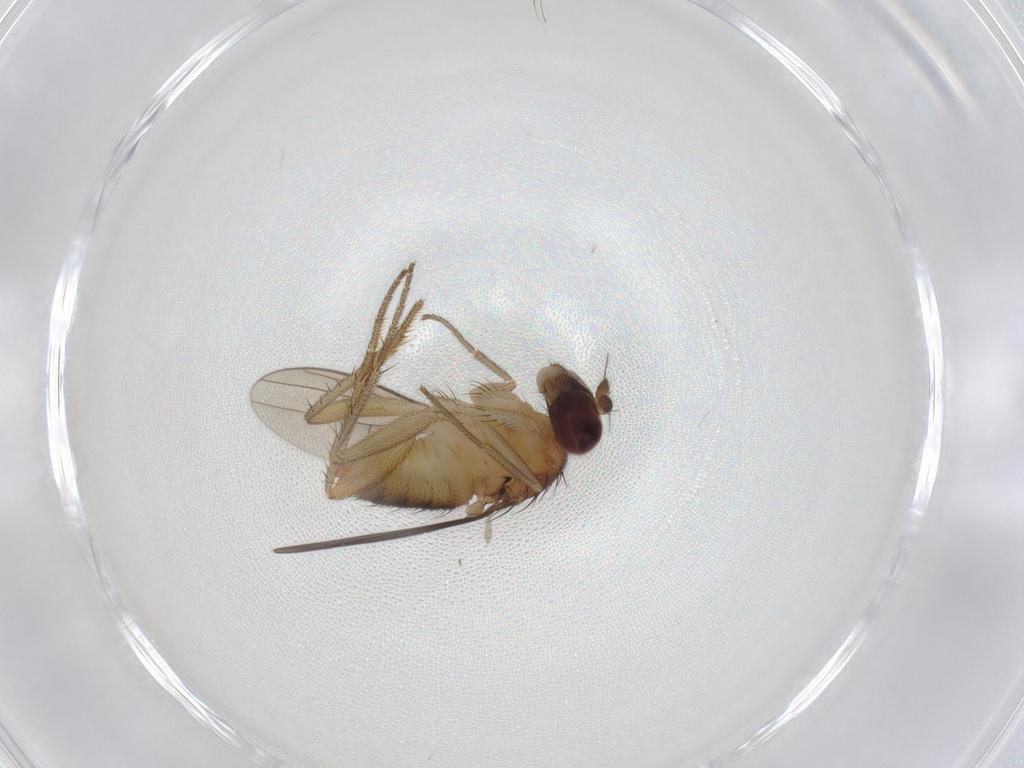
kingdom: Animalia
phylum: Arthropoda
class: Insecta
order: Diptera
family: Dolichopodidae
